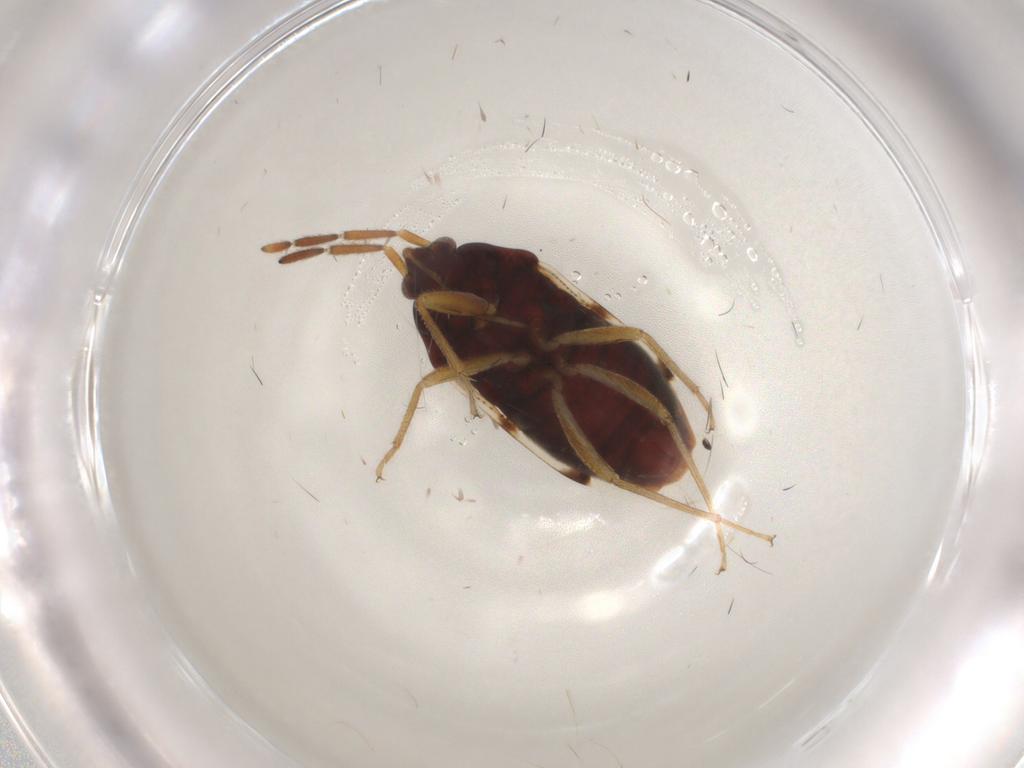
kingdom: Animalia
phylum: Arthropoda
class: Insecta
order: Hemiptera
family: Rhyparochromidae
